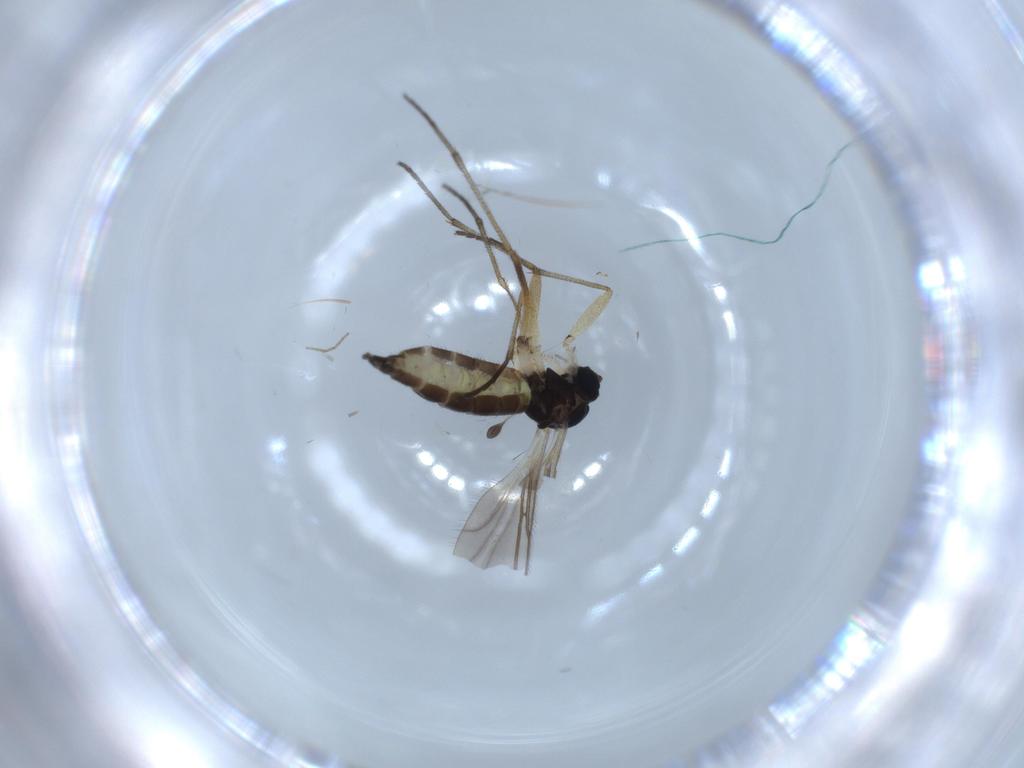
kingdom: Animalia
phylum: Arthropoda
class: Insecta
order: Diptera
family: Sciaridae
